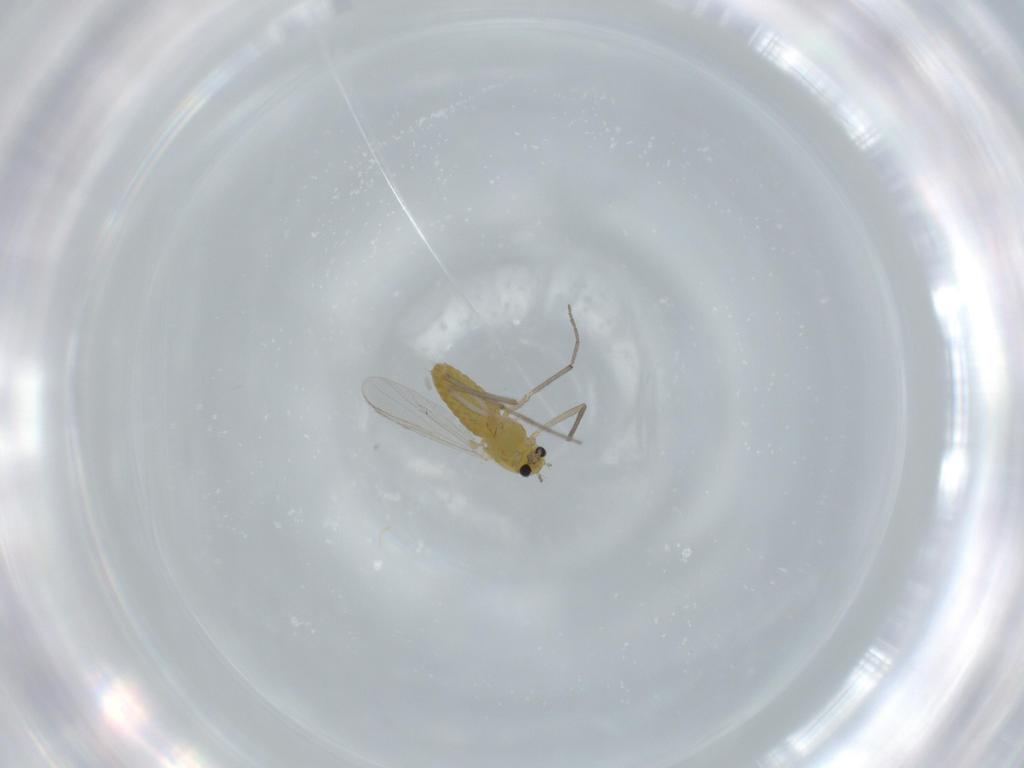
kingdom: Animalia
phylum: Arthropoda
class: Insecta
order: Diptera
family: Chironomidae
